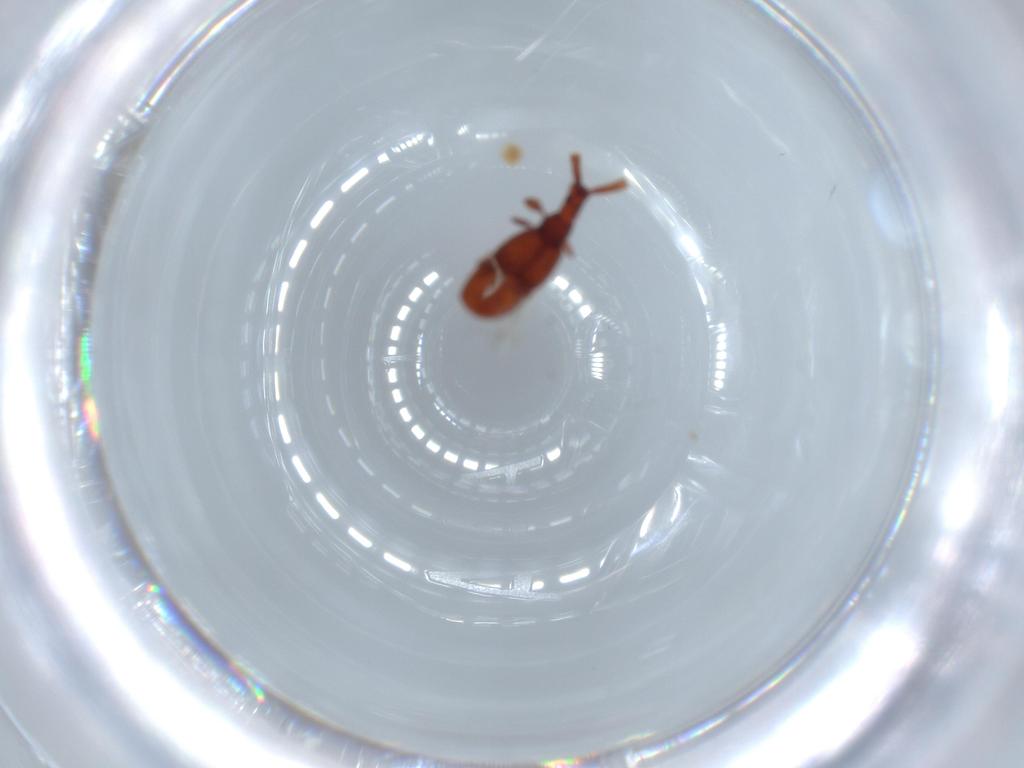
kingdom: Animalia
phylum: Arthropoda
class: Insecta
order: Coleoptera
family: Staphylinidae
